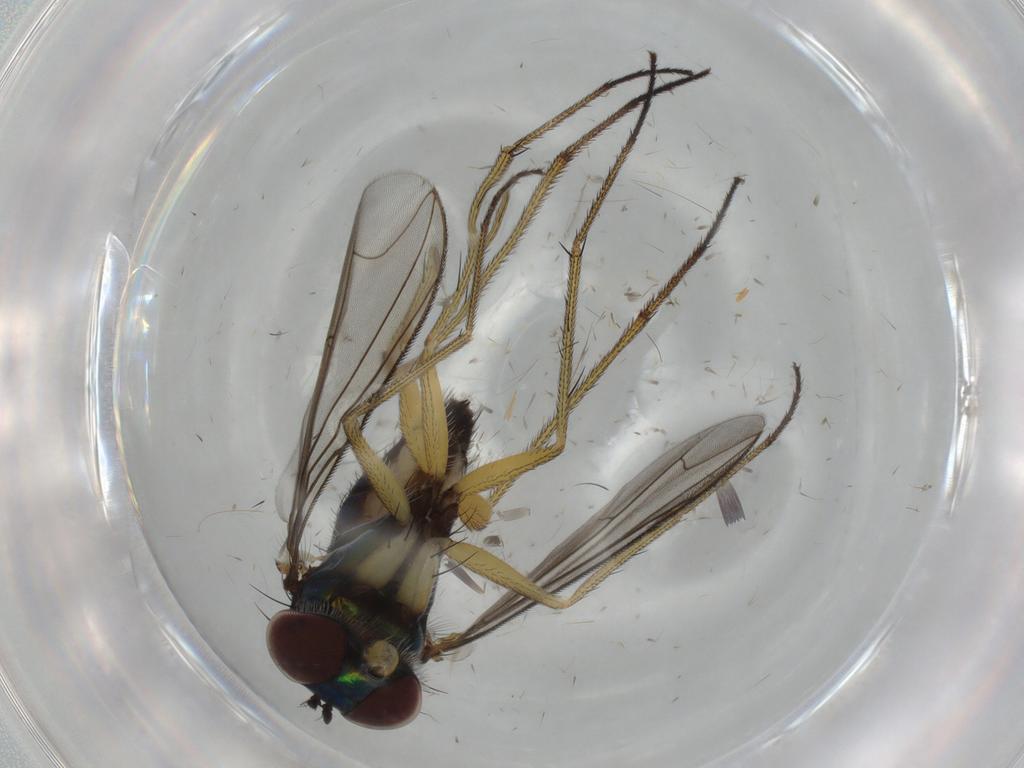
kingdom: Animalia
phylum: Arthropoda
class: Insecta
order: Diptera
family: Dolichopodidae
